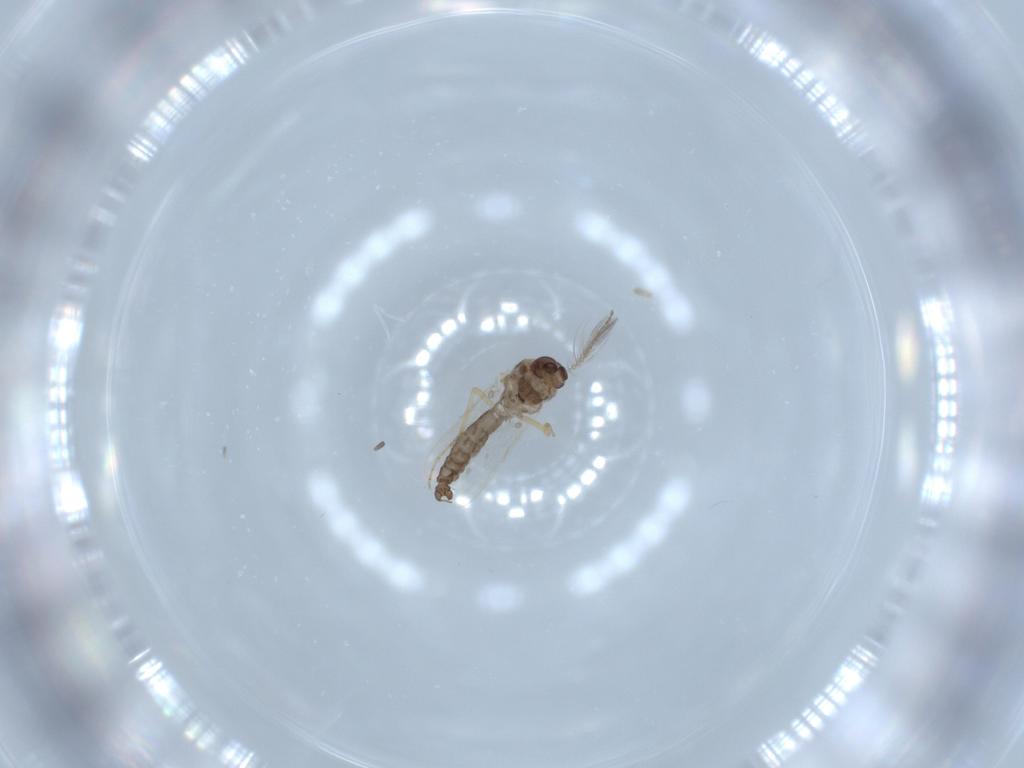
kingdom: Animalia
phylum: Arthropoda
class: Insecta
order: Diptera
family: Ceratopogonidae
